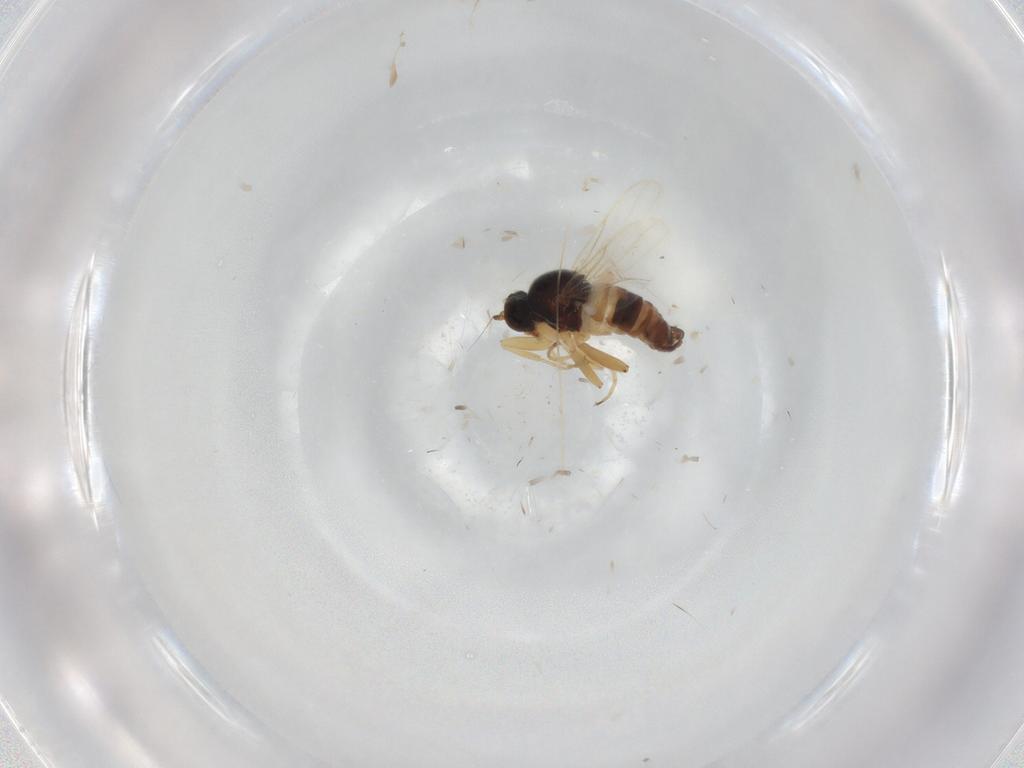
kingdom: Animalia
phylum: Arthropoda
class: Insecta
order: Diptera
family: Hybotidae
